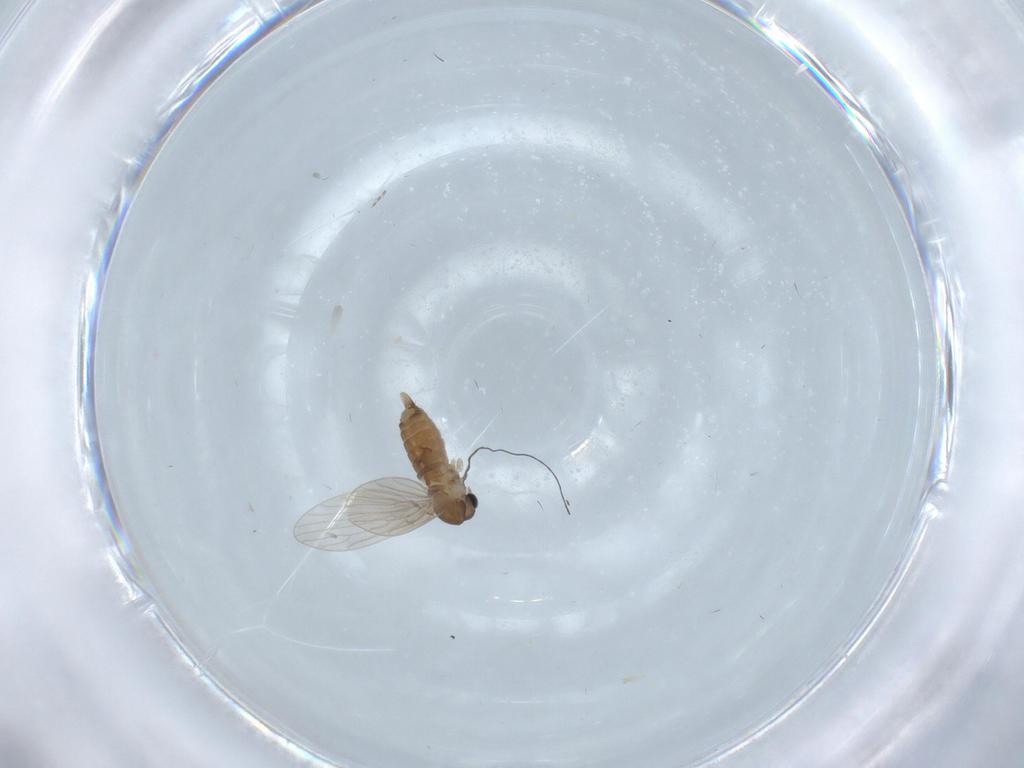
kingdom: Animalia
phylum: Arthropoda
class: Insecta
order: Diptera
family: Psychodidae
